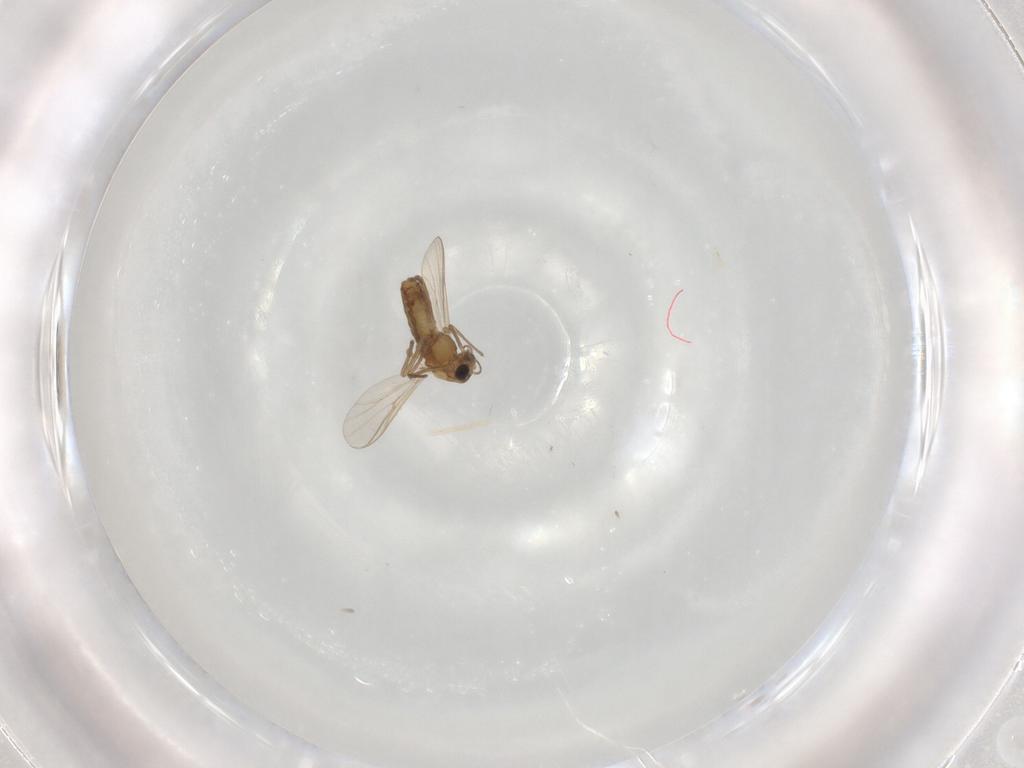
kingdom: Animalia
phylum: Arthropoda
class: Insecta
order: Diptera
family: Chironomidae
